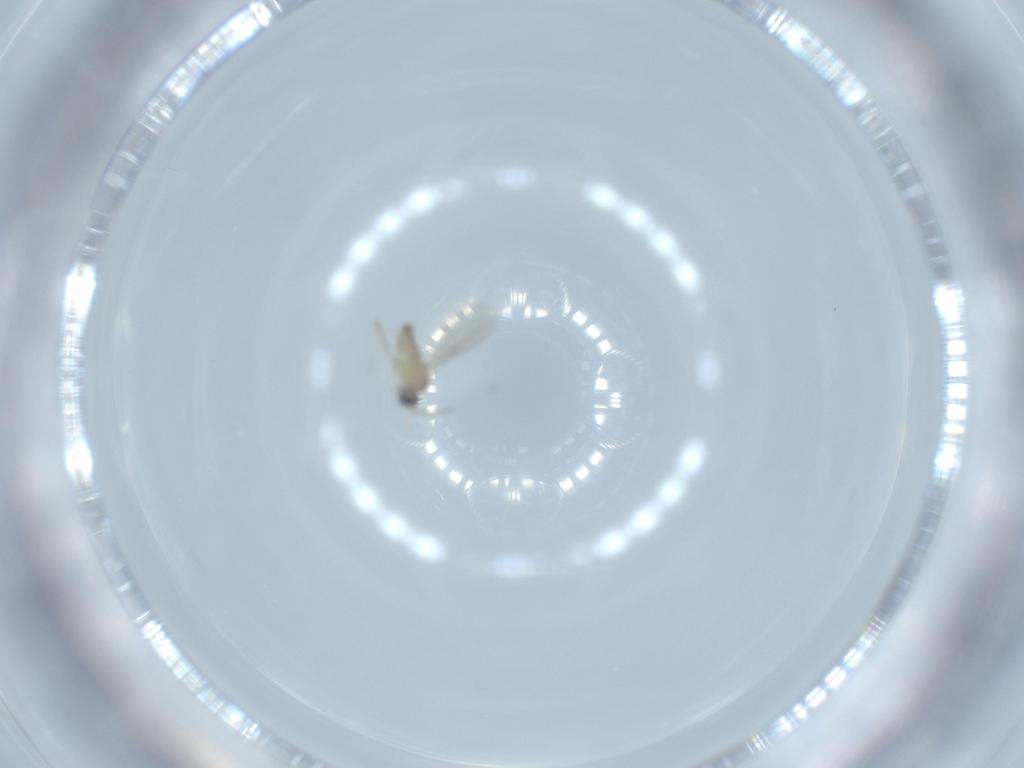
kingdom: Animalia
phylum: Arthropoda
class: Insecta
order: Diptera
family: Cecidomyiidae
